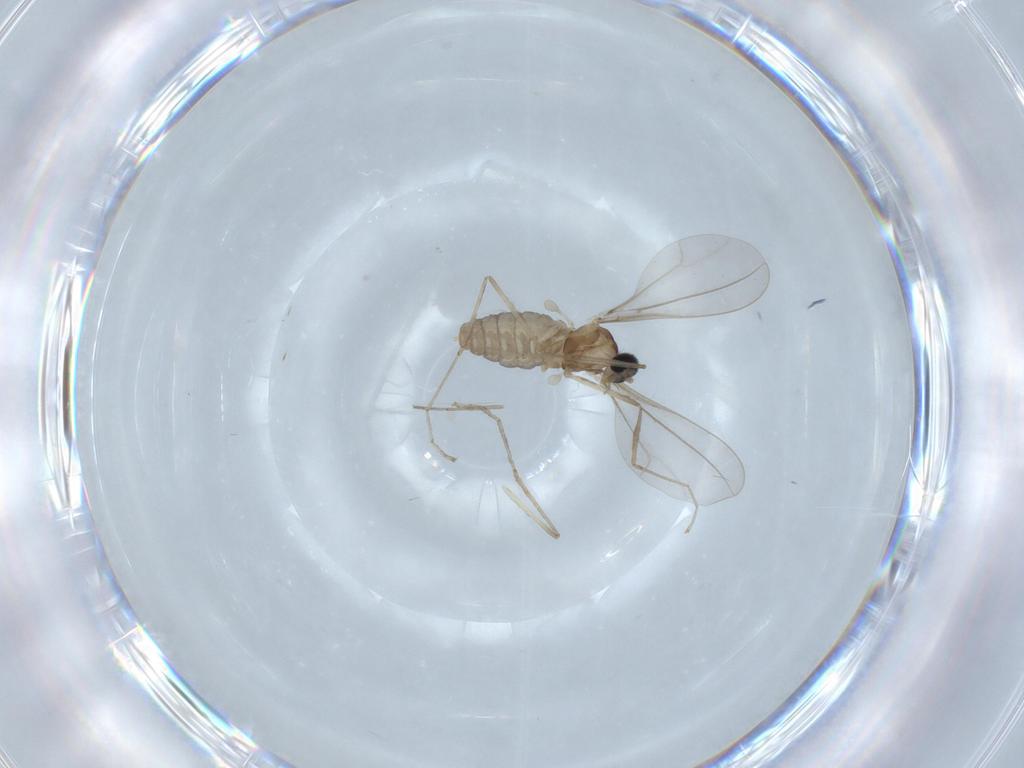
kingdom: Animalia
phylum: Arthropoda
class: Insecta
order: Diptera
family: Cecidomyiidae
